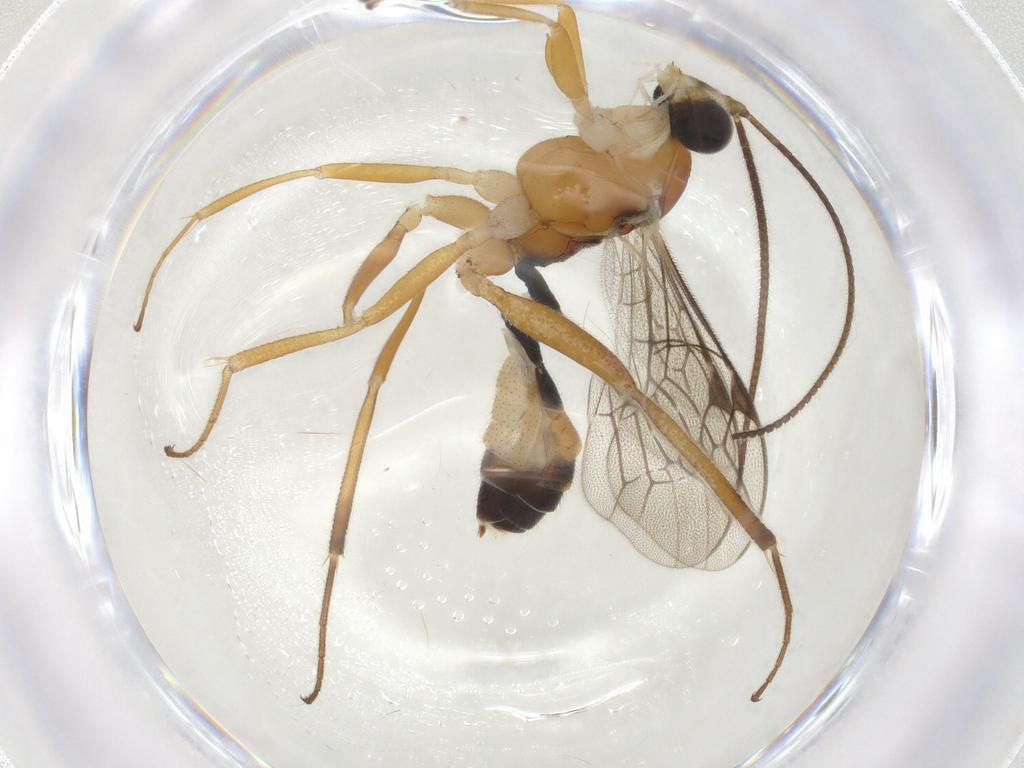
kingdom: Animalia
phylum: Arthropoda
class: Insecta
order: Hymenoptera
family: Ichneumonidae
